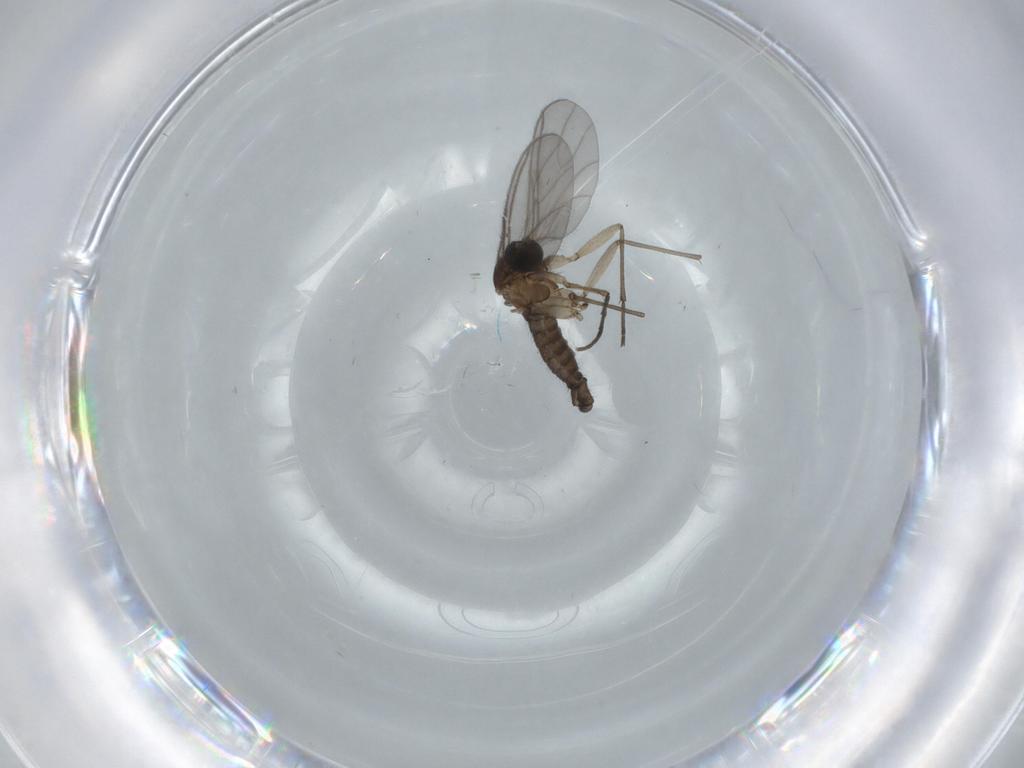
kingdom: Animalia
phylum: Arthropoda
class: Insecta
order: Diptera
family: Sciaridae
